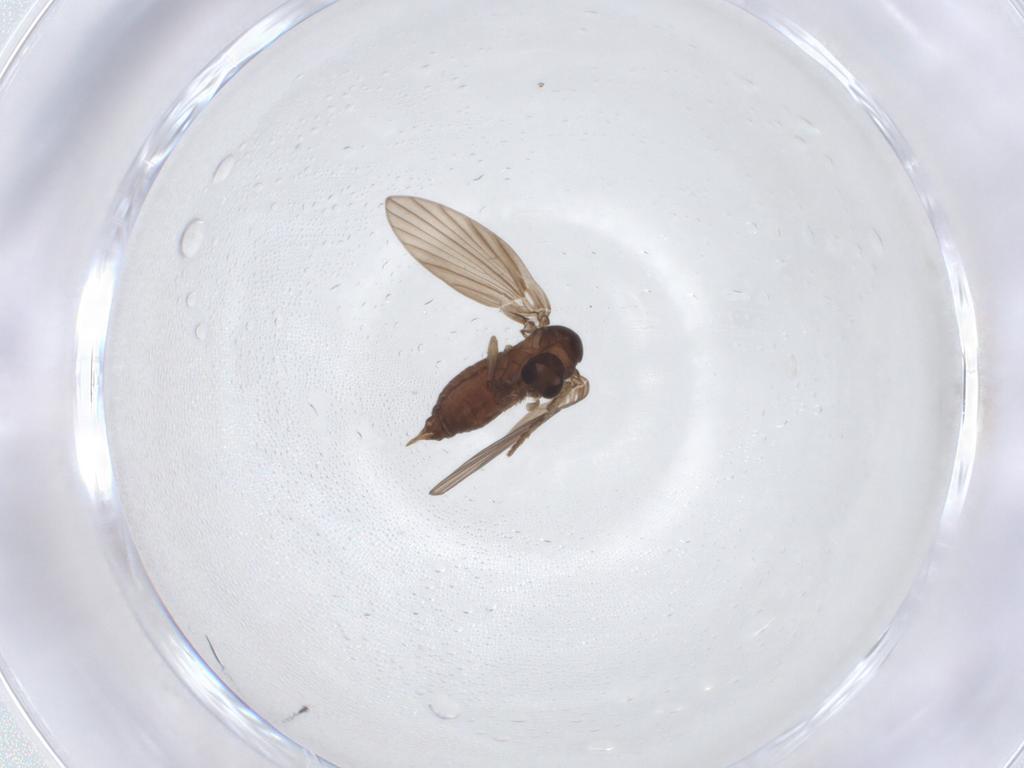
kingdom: Animalia
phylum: Arthropoda
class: Insecta
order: Diptera
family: Psychodidae
